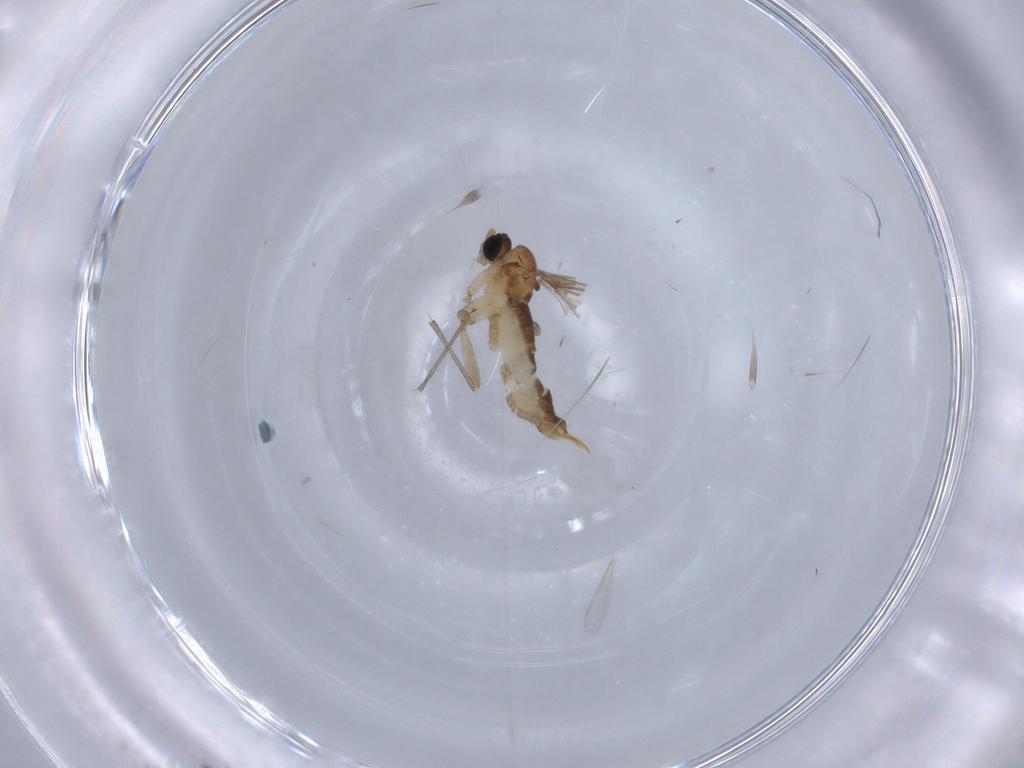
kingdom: Animalia
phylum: Arthropoda
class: Insecta
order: Diptera
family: Sciaridae
